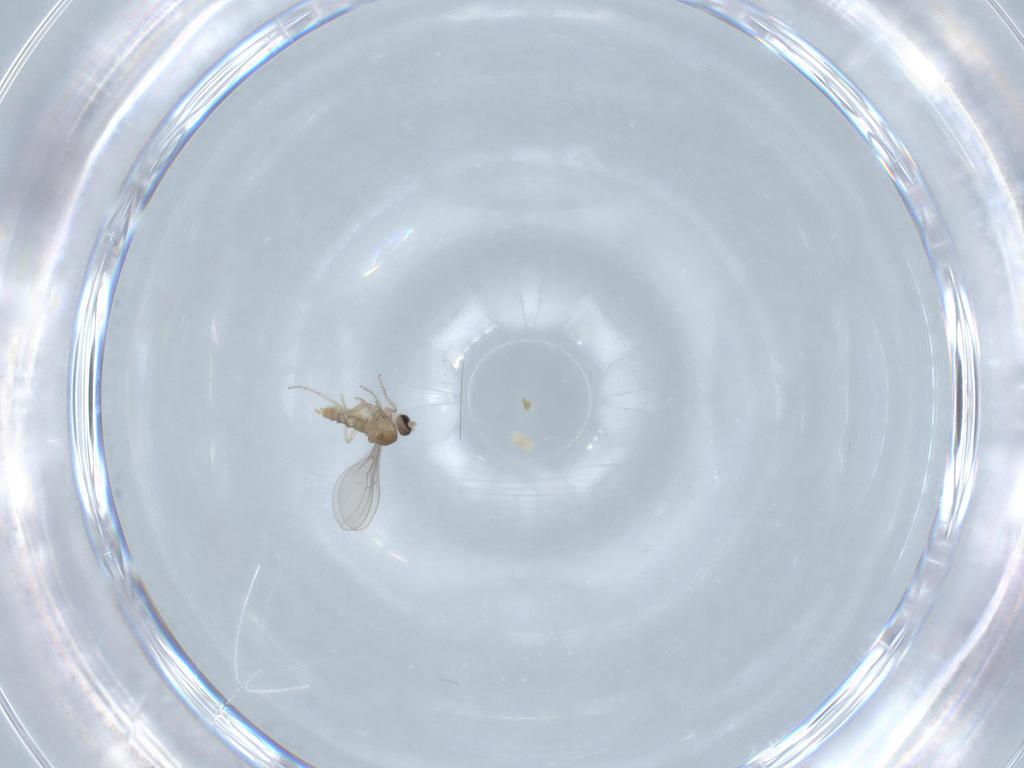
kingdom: Animalia
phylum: Arthropoda
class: Insecta
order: Diptera
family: Chironomidae
